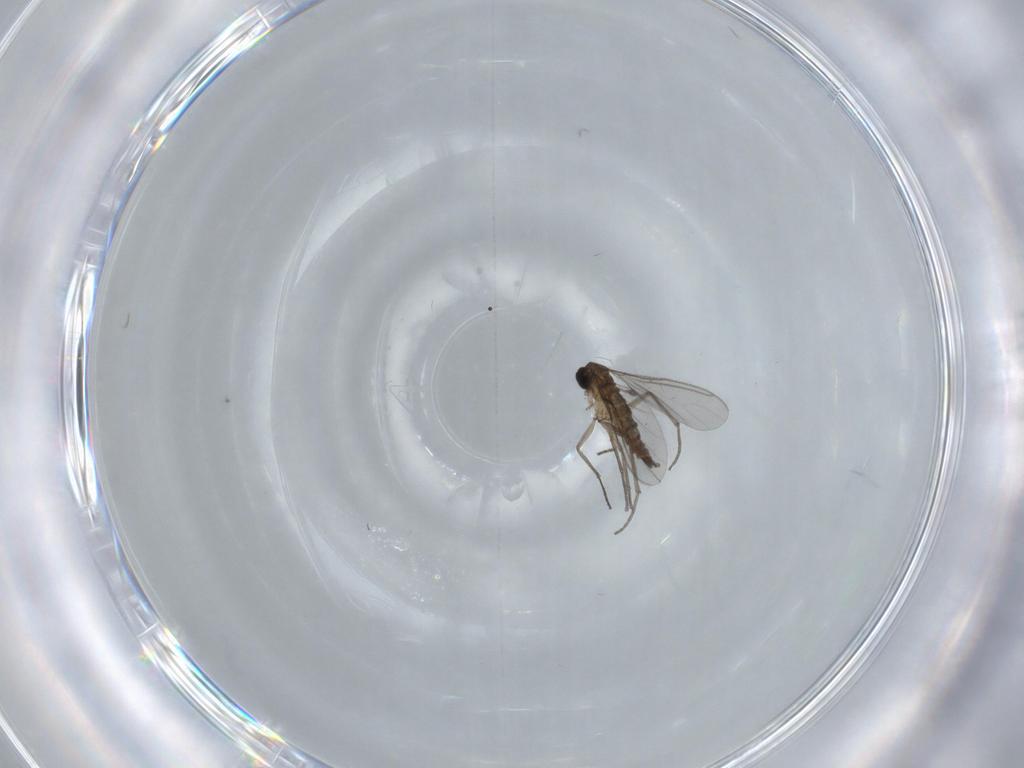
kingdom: Animalia
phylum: Arthropoda
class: Insecta
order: Diptera
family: Sciaridae
